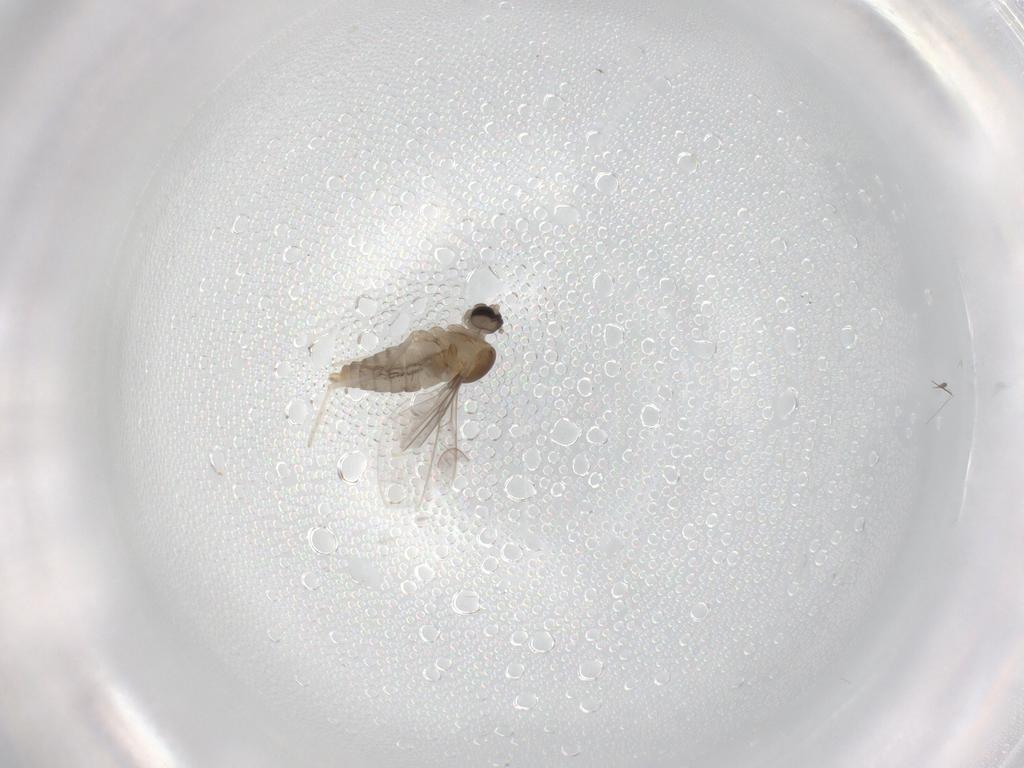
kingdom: Animalia
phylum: Arthropoda
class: Insecta
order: Diptera
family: Cecidomyiidae
